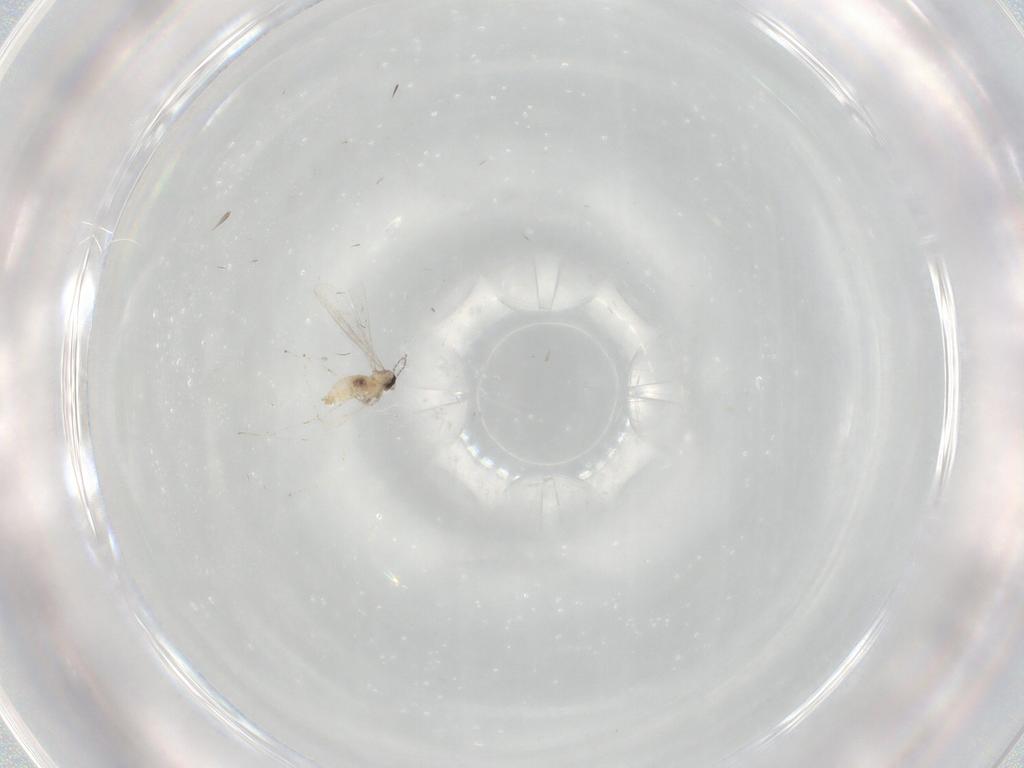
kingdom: Animalia
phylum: Arthropoda
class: Insecta
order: Diptera
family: Cecidomyiidae
